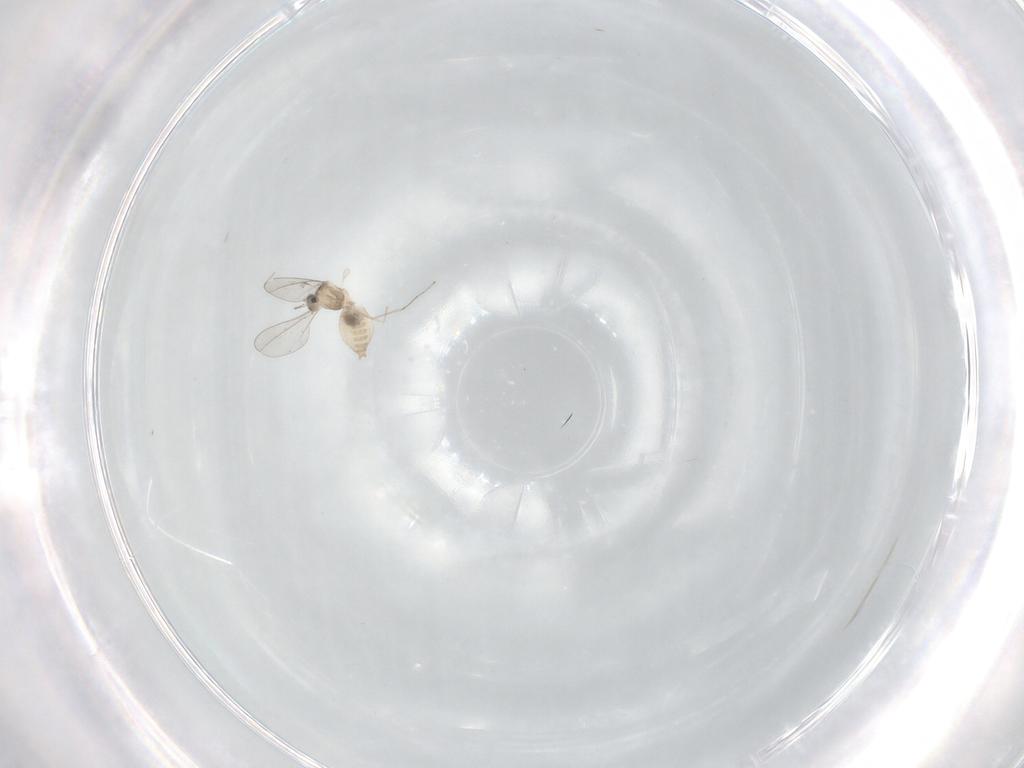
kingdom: Animalia
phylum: Arthropoda
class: Insecta
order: Diptera
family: Cecidomyiidae
